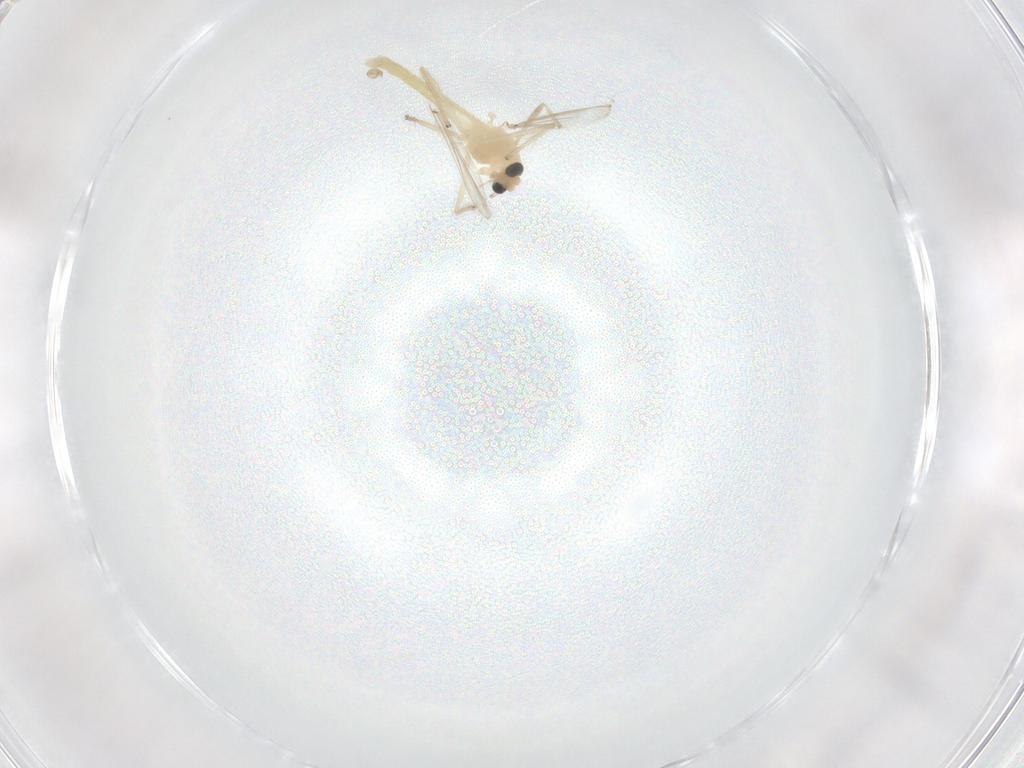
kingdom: Animalia
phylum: Arthropoda
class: Insecta
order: Diptera
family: Chironomidae
